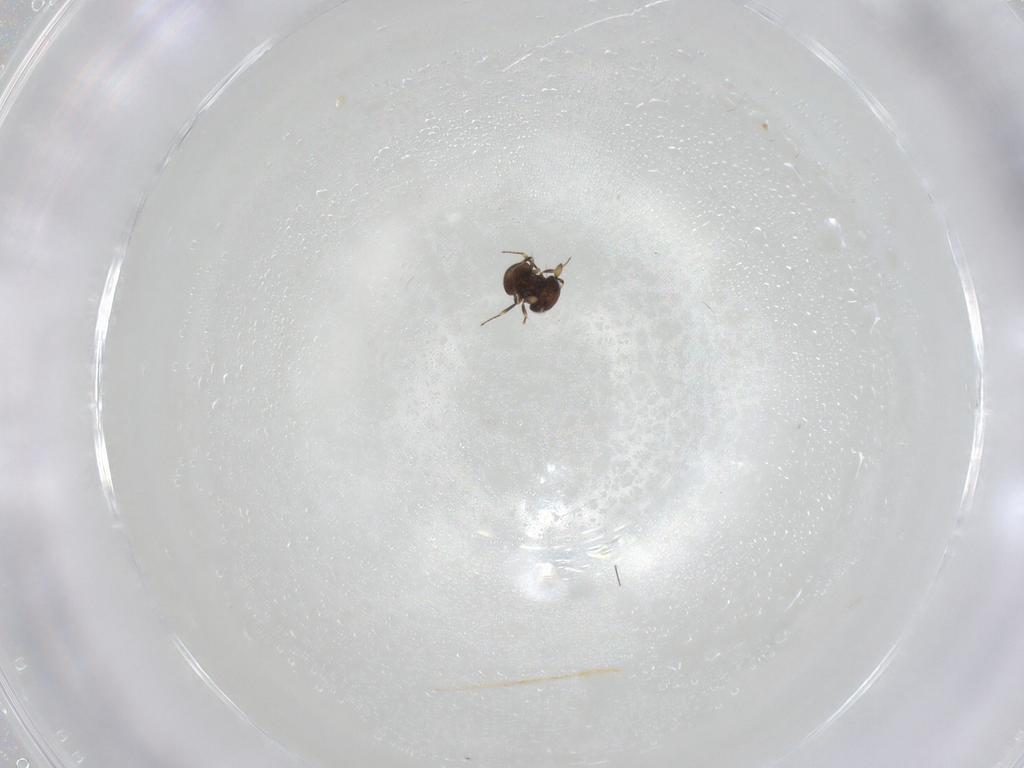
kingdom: Animalia
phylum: Arthropoda
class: Insecta
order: Hymenoptera
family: Scelionidae
